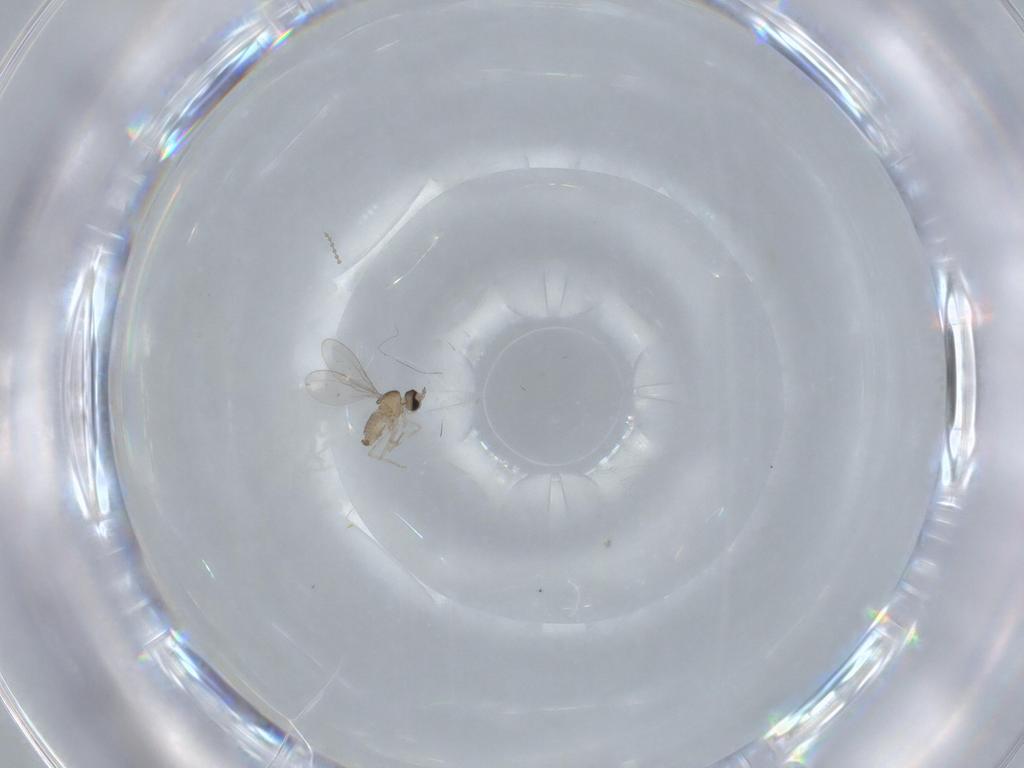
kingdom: Animalia
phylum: Arthropoda
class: Insecta
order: Diptera
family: Cecidomyiidae
